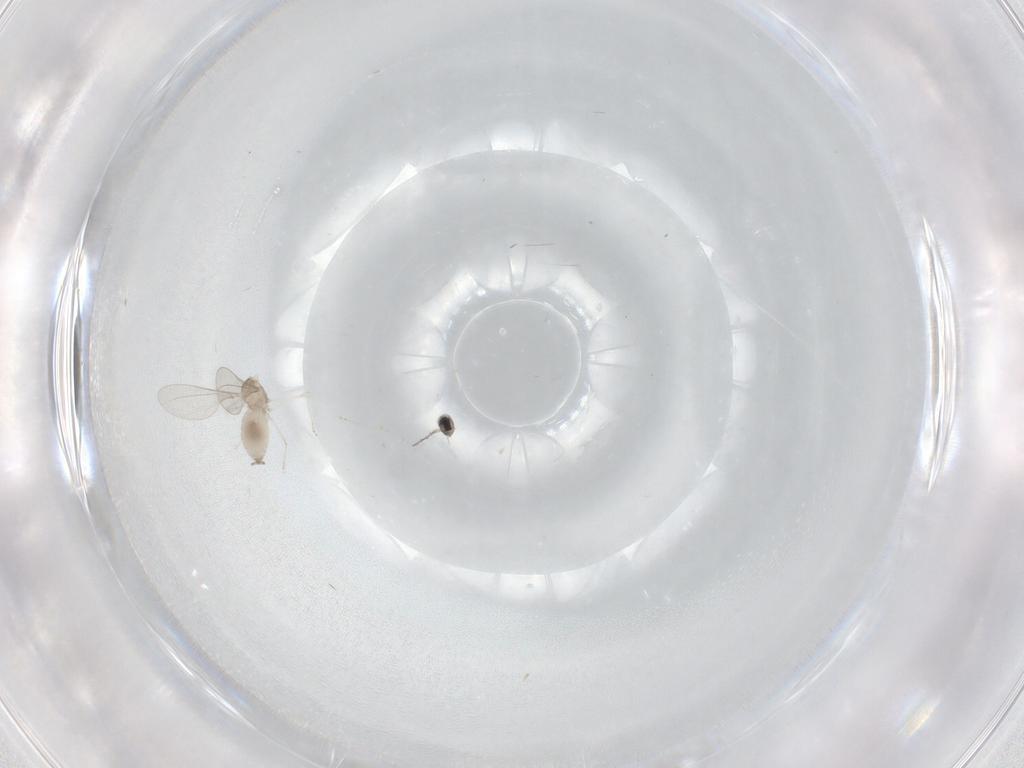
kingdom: Animalia
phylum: Arthropoda
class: Insecta
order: Diptera
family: Cecidomyiidae
